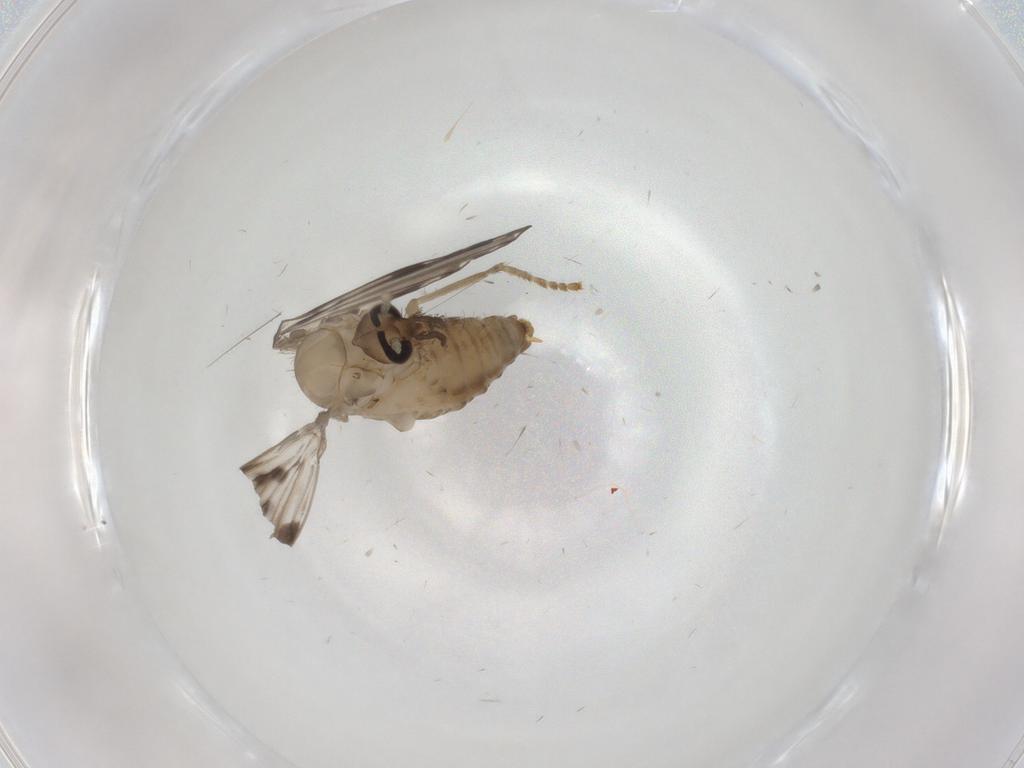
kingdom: Animalia
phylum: Arthropoda
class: Insecta
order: Diptera
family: Psychodidae
